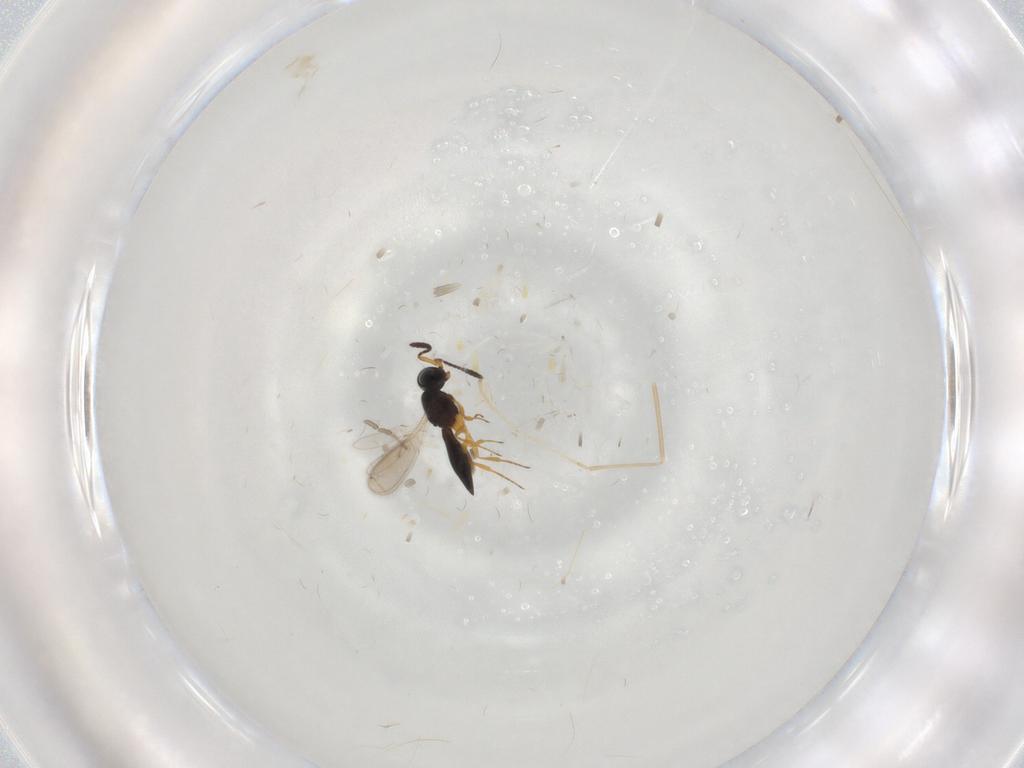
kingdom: Animalia
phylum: Arthropoda
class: Insecta
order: Hymenoptera
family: Scelionidae
